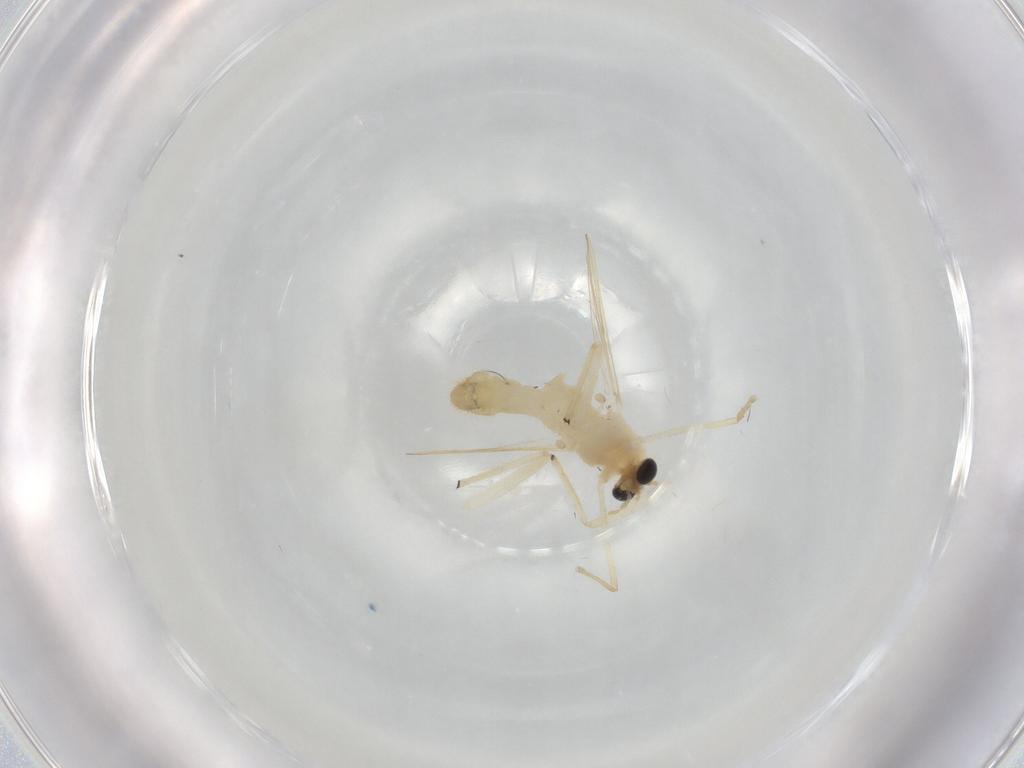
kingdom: Animalia
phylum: Arthropoda
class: Insecta
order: Diptera
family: Chironomidae
